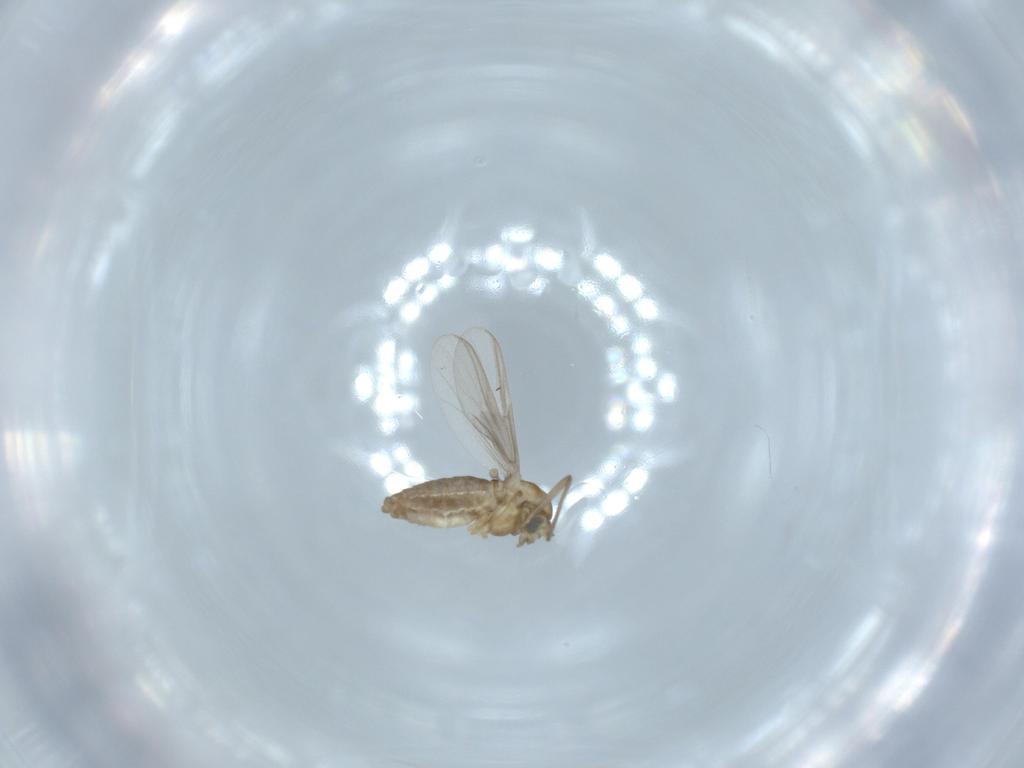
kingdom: Animalia
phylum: Arthropoda
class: Insecta
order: Diptera
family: Chironomidae
